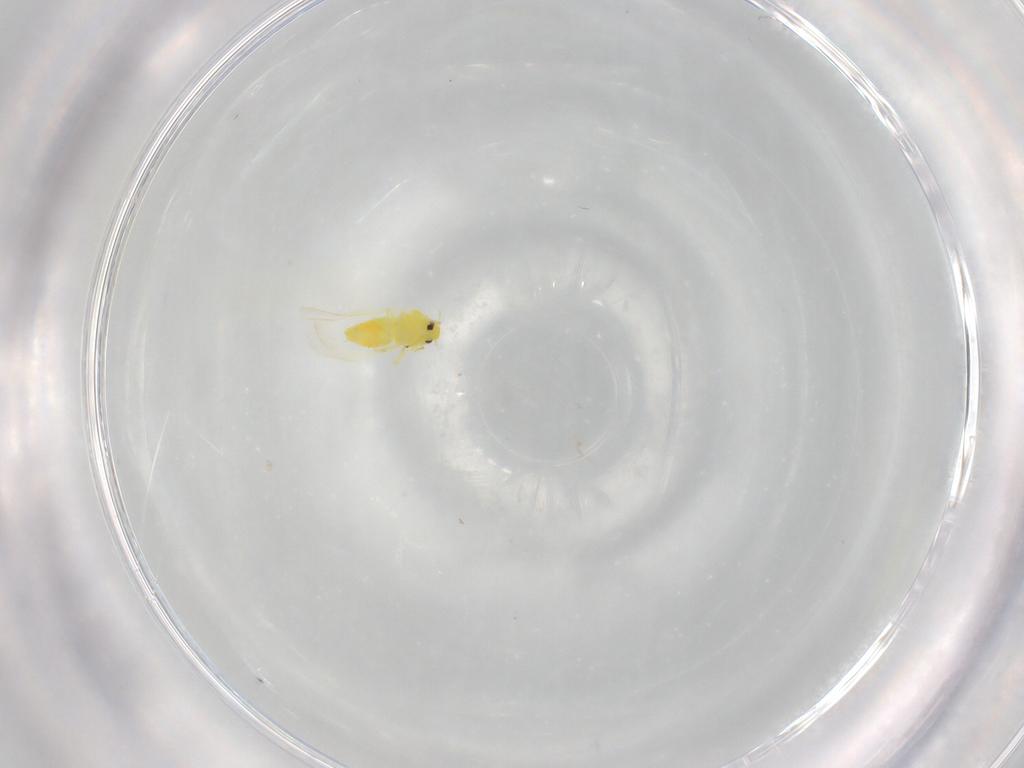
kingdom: Animalia
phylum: Arthropoda
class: Insecta
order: Hemiptera
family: Aleyrodidae
